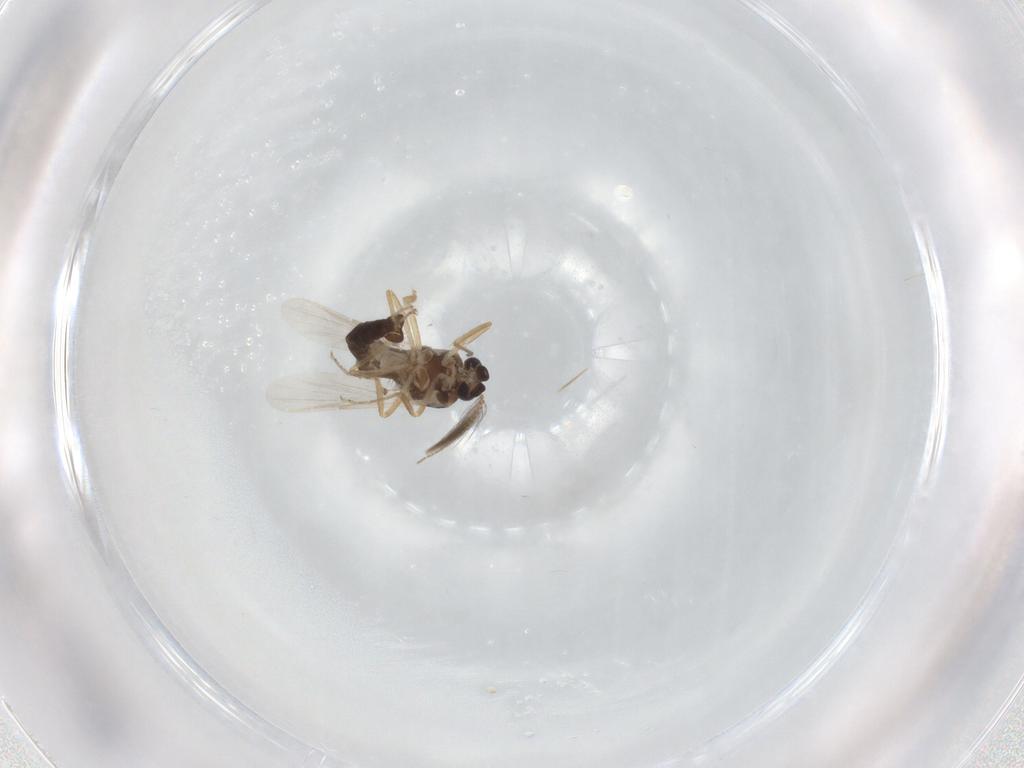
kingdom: Animalia
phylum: Arthropoda
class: Insecta
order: Diptera
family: Ceratopogonidae
